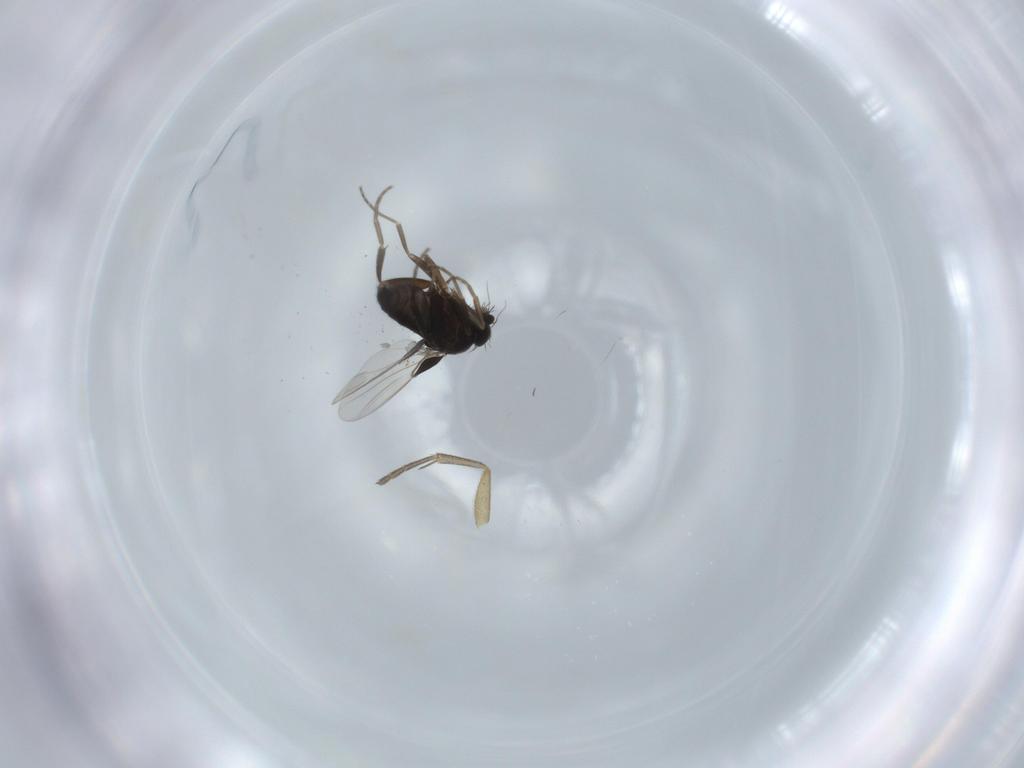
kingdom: Animalia
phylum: Arthropoda
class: Insecta
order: Diptera
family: Phoridae
